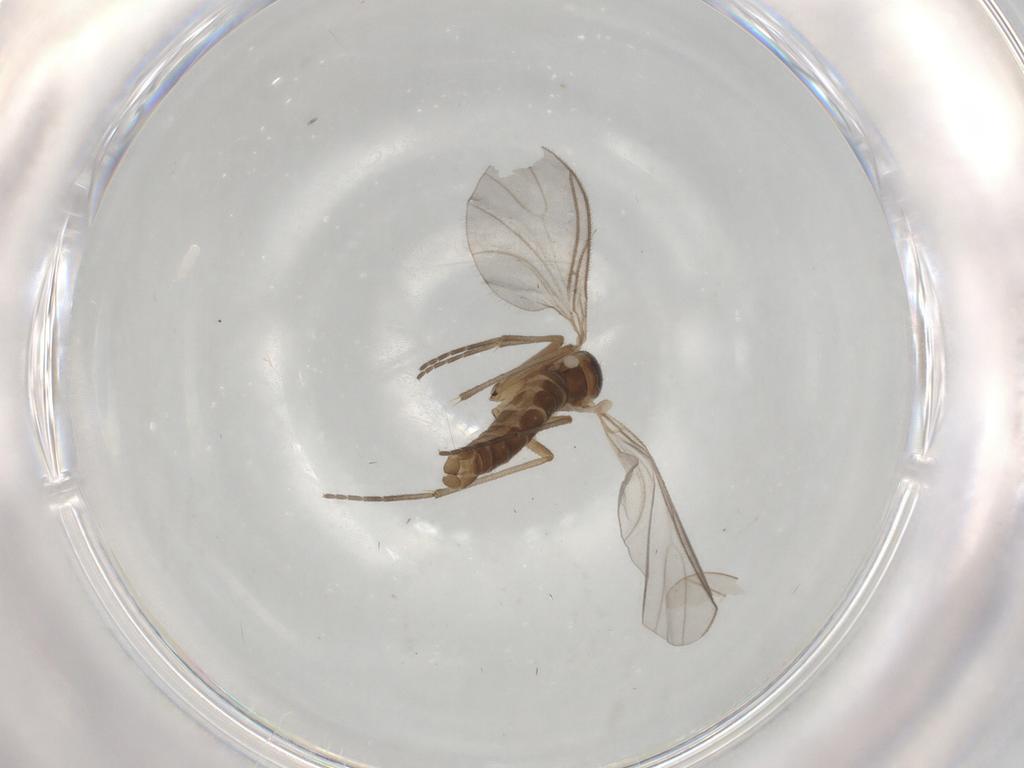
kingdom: Animalia
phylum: Arthropoda
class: Insecta
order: Diptera
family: Sciaridae
